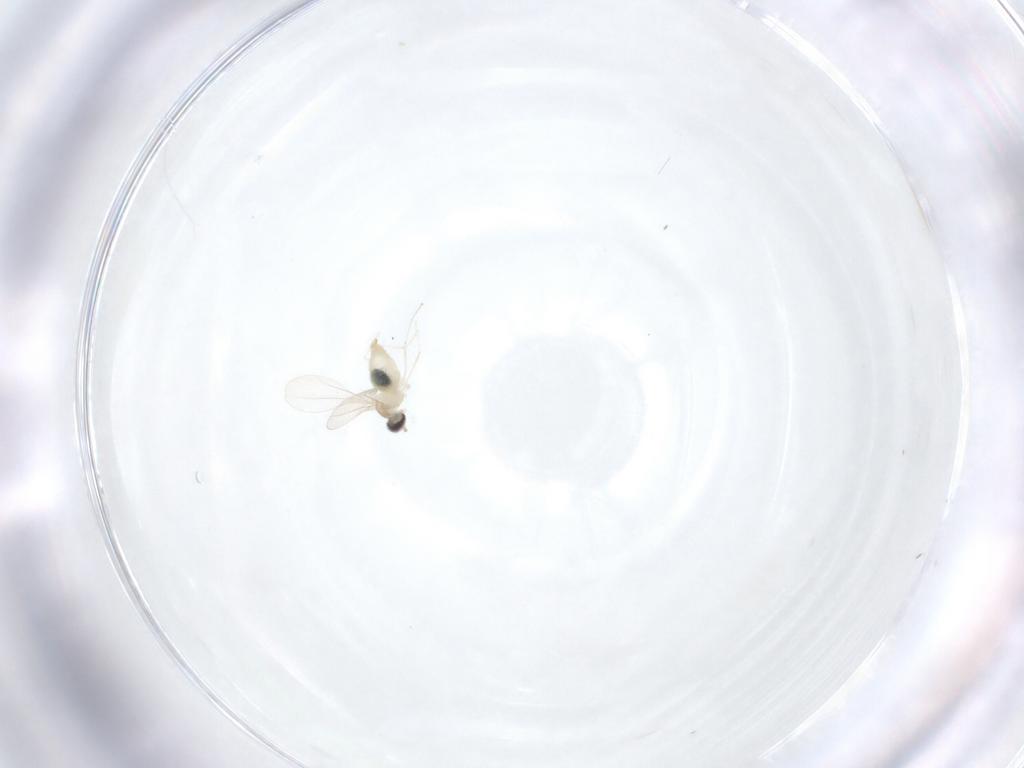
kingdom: Animalia
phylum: Arthropoda
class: Insecta
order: Diptera
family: Cecidomyiidae
